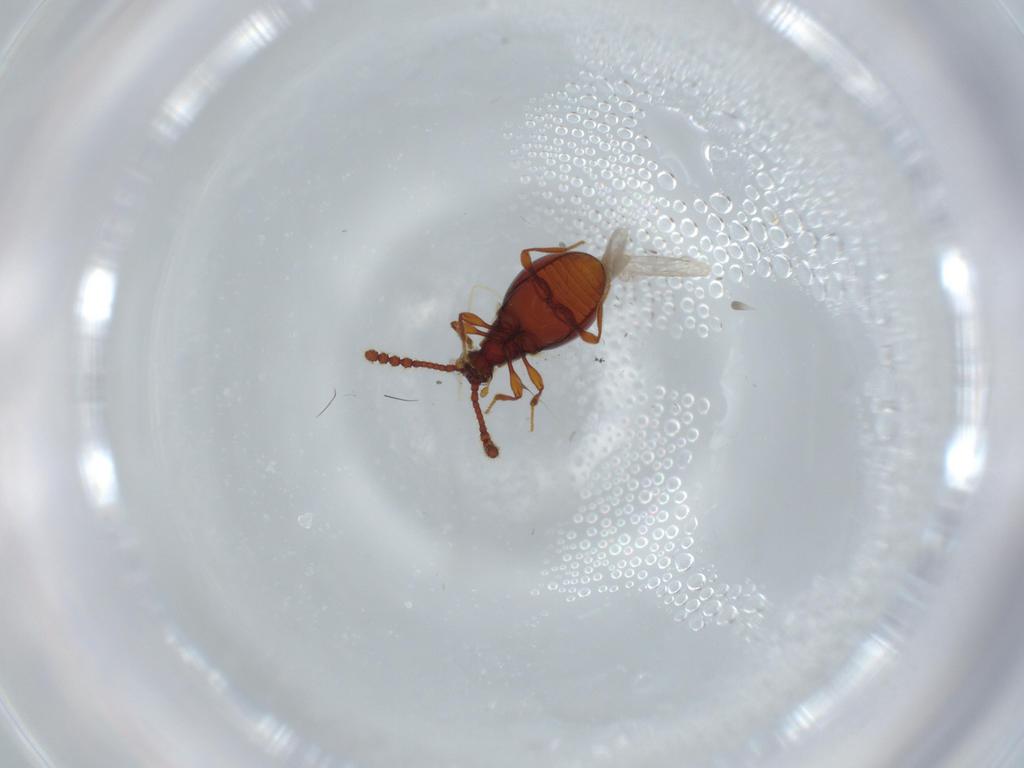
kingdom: Animalia
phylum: Arthropoda
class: Insecta
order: Coleoptera
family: Staphylinidae
